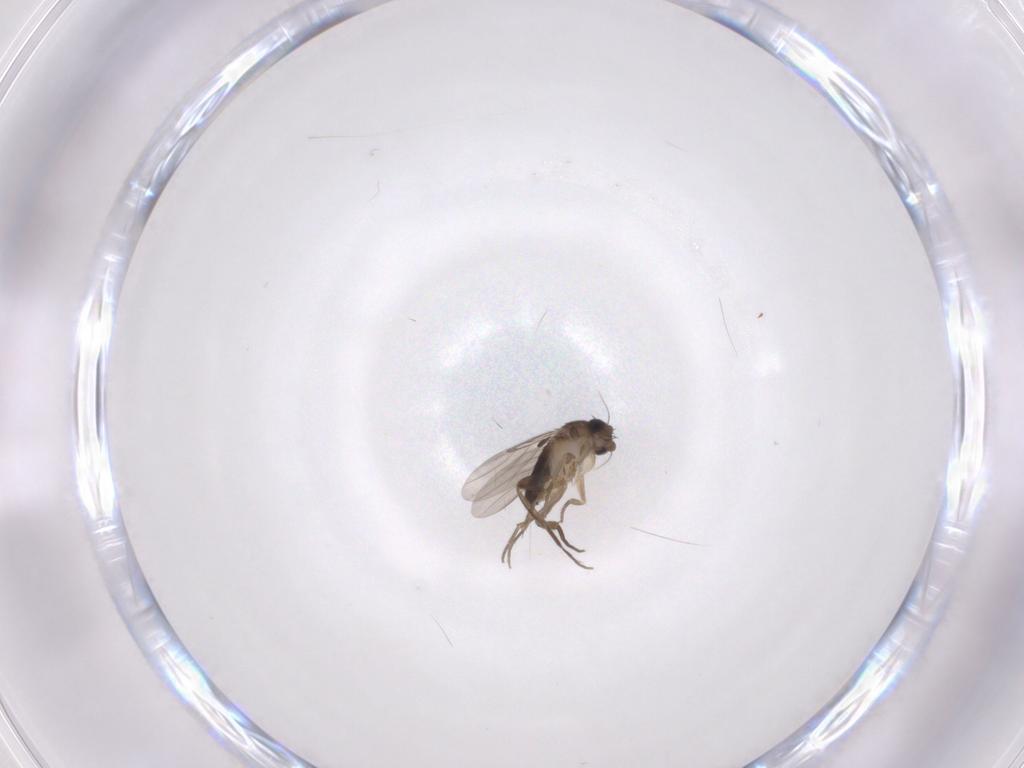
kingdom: Animalia
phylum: Arthropoda
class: Insecta
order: Diptera
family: Phoridae
